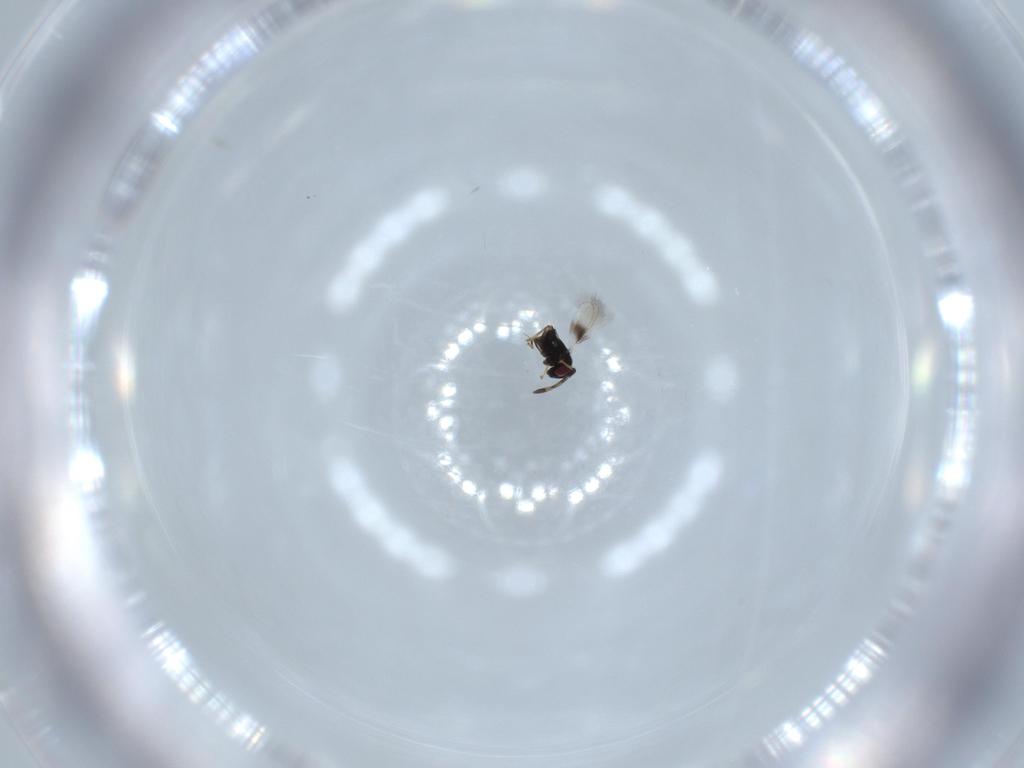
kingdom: Animalia
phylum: Arthropoda
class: Insecta
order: Hymenoptera
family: Azotidae
